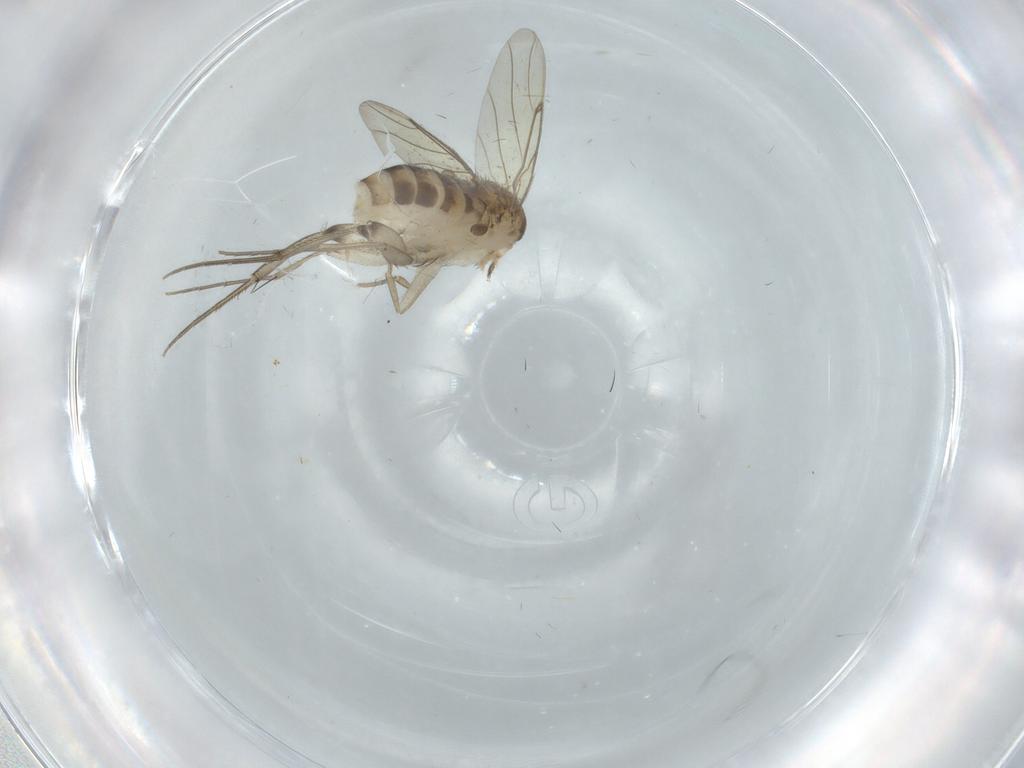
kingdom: Animalia
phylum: Arthropoda
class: Insecta
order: Diptera
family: Phoridae
